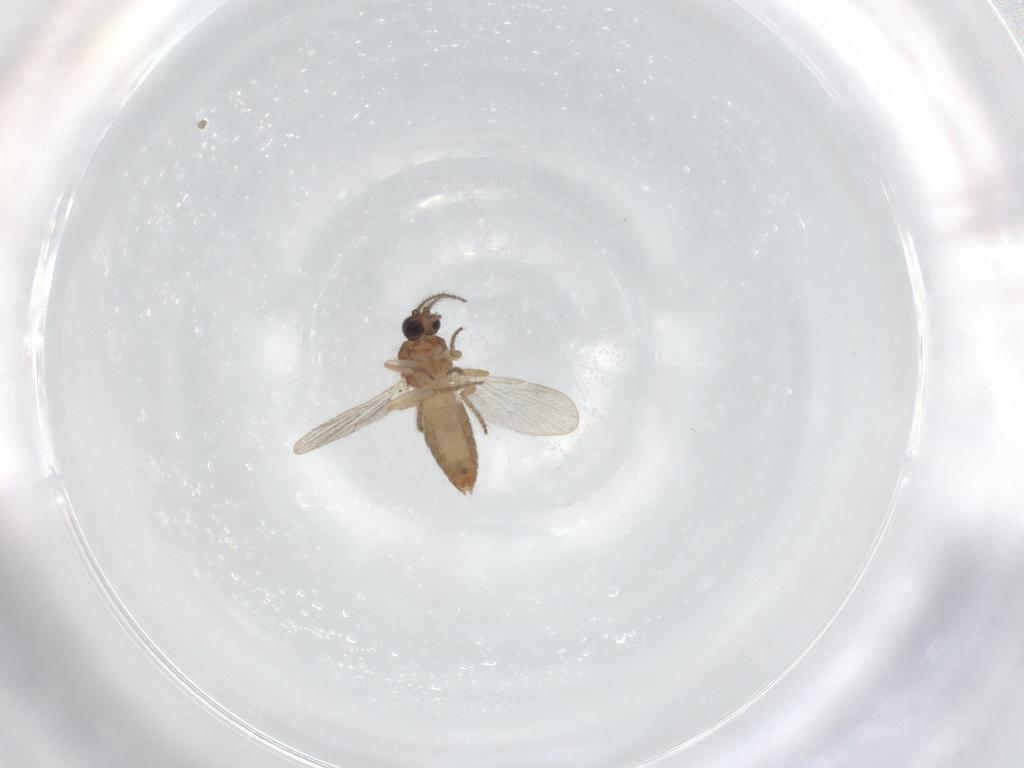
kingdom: Animalia
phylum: Arthropoda
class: Insecta
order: Diptera
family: Ceratopogonidae
